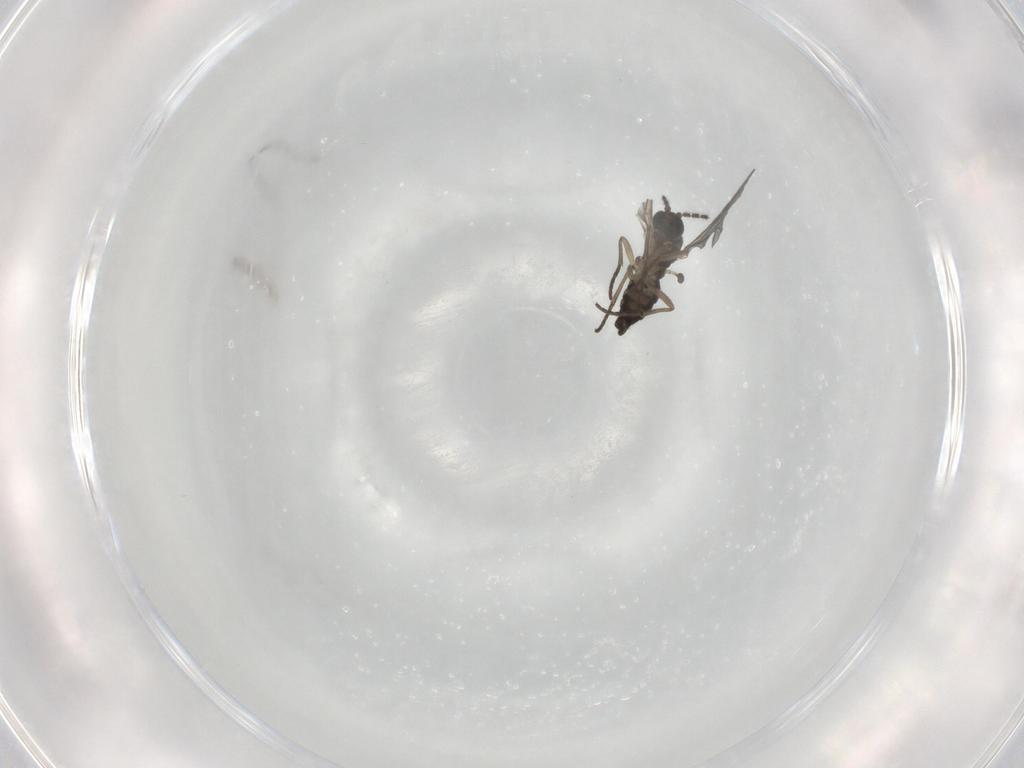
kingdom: Animalia
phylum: Arthropoda
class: Insecta
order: Diptera
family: Sciaridae
